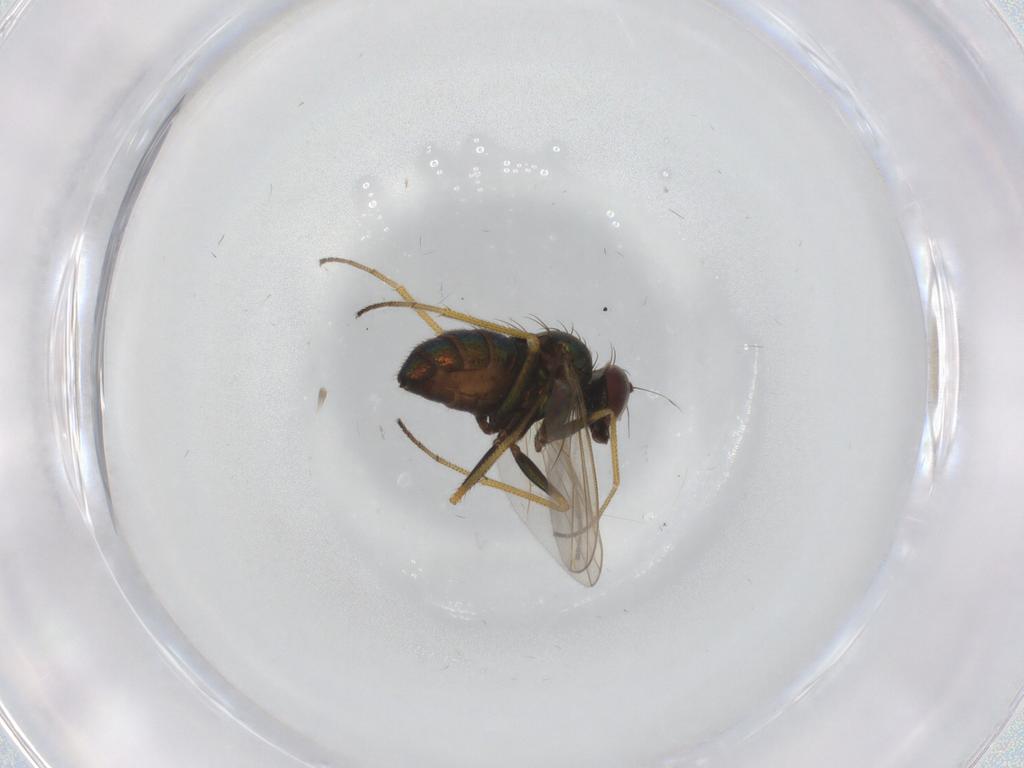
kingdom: Animalia
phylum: Arthropoda
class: Insecta
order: Diptera
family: Dolichopodidae
